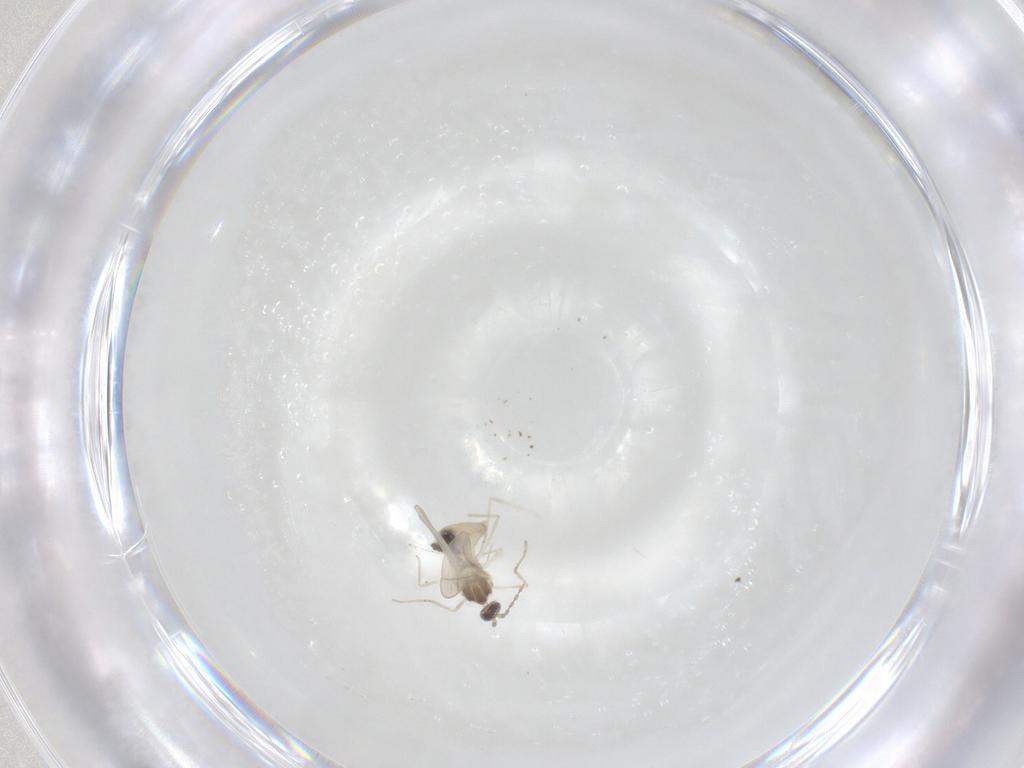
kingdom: Animalia
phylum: Arthropoda
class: Insecta
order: Diptera
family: Cecidomyiidae
